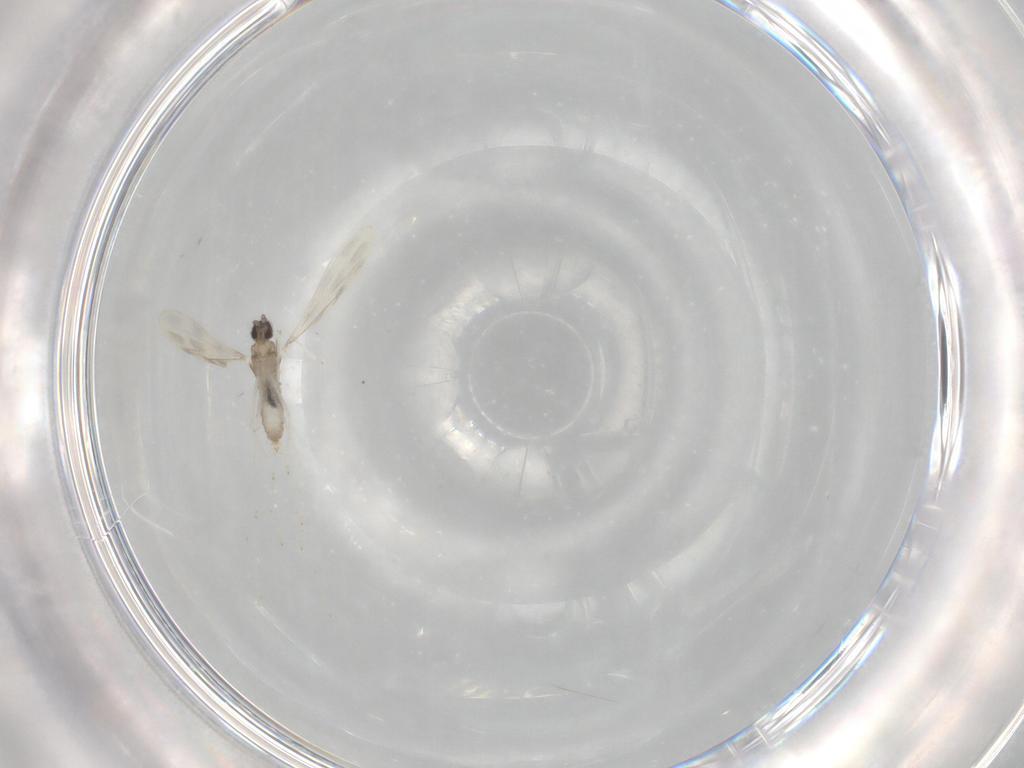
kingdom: Animalia
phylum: Arthropoda
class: Insecta
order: Diptera
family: Cecidomyiidae
